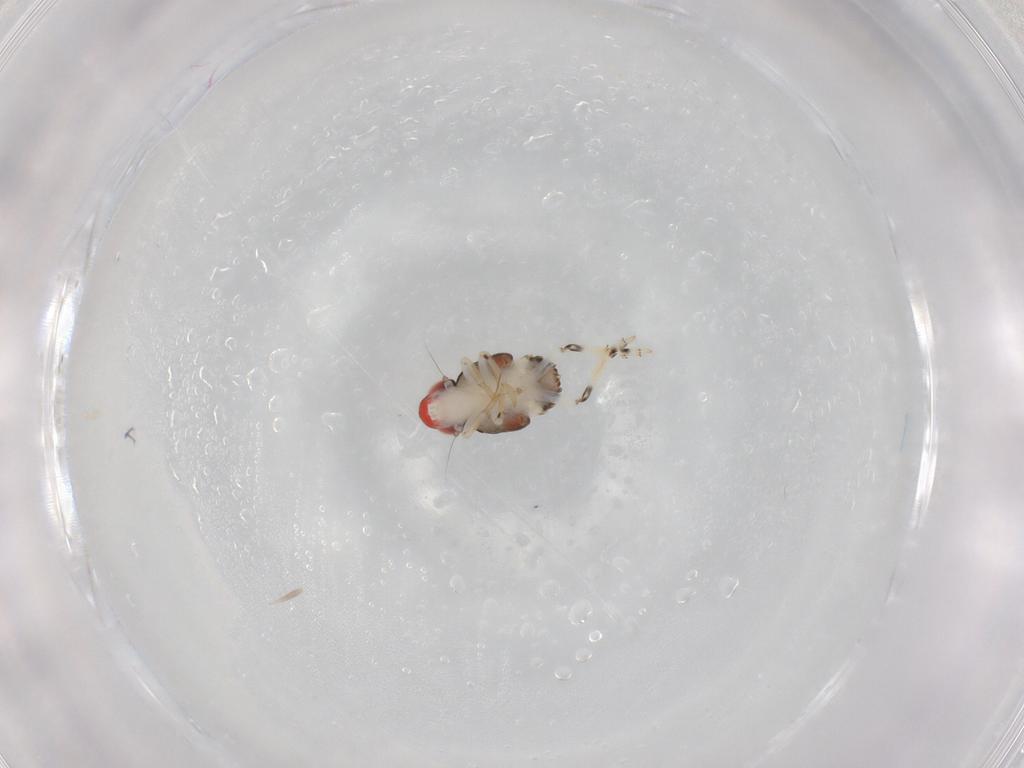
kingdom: Animalia
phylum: Arthropoda
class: Insecta
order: Hemiptera
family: Fulgoroidea_incertae_sedis
